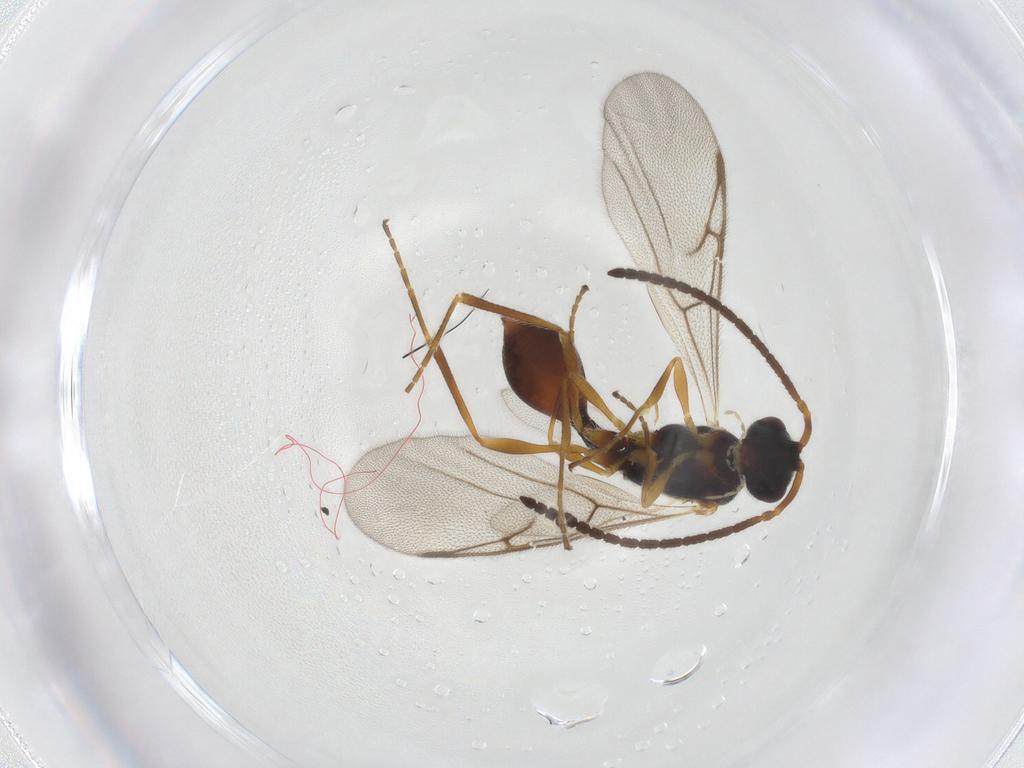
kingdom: Animalia
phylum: Arthropoda
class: Insecta
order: Hymenoptera
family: Diapriidae
